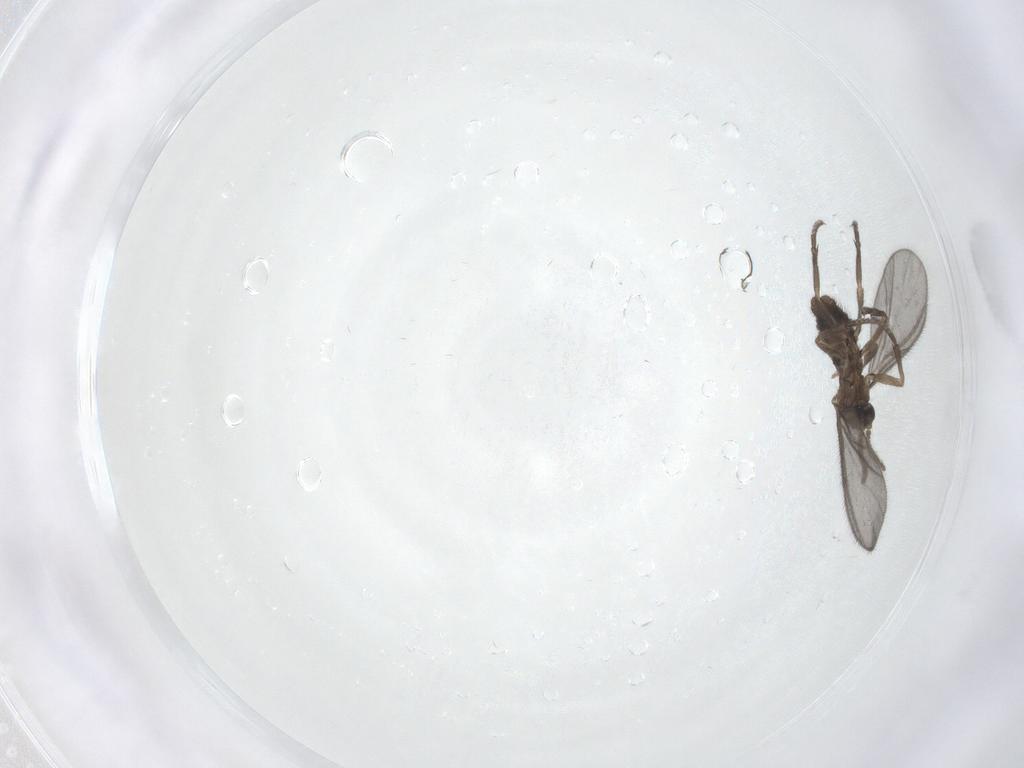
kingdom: Animalia
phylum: Arthropoda
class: Insecta
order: Diptera
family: Sciaridae
